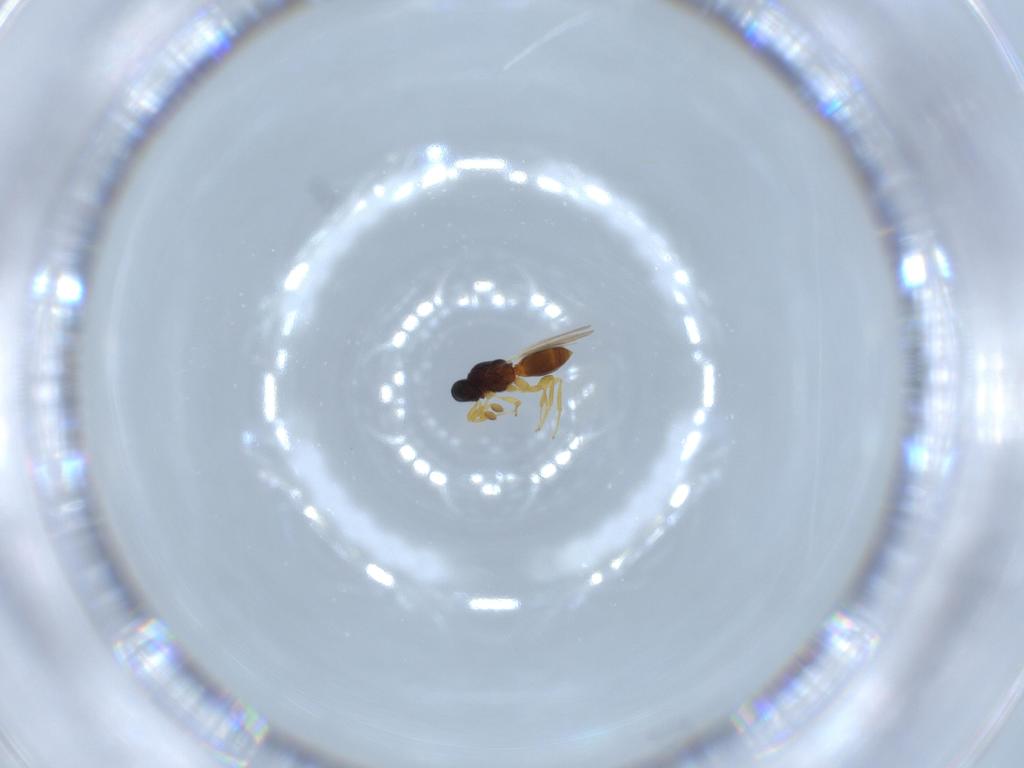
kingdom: Animalia
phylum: Arthropoda
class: Insecta
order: Hymenoptera
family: Platygastridae
